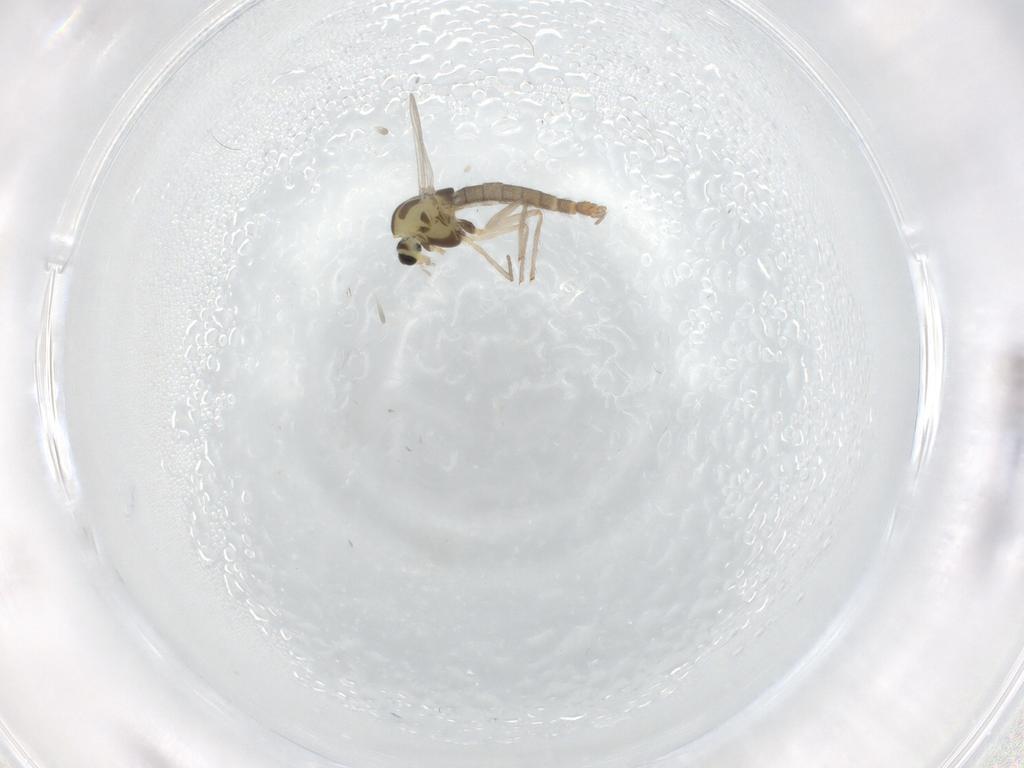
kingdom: Animalia
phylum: Arthropoda
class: Insecta
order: Diptera
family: Chironomidae
